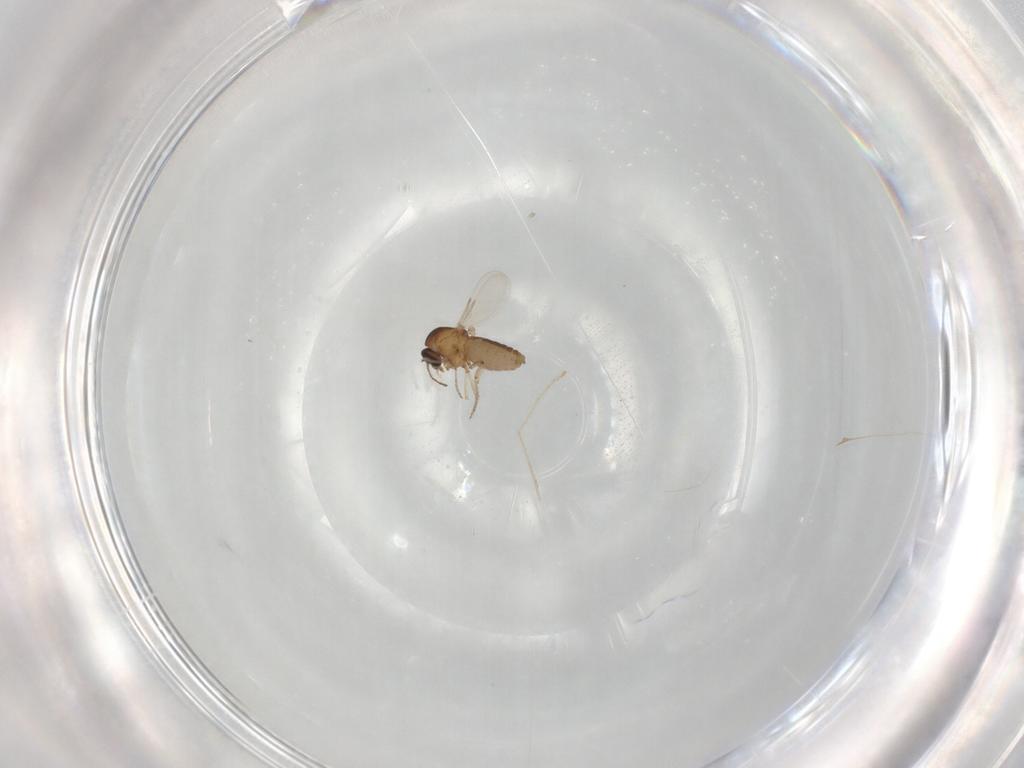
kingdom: Animalia
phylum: Arthropoda
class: Insecta
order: Diptera
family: Ceratopogonidae
